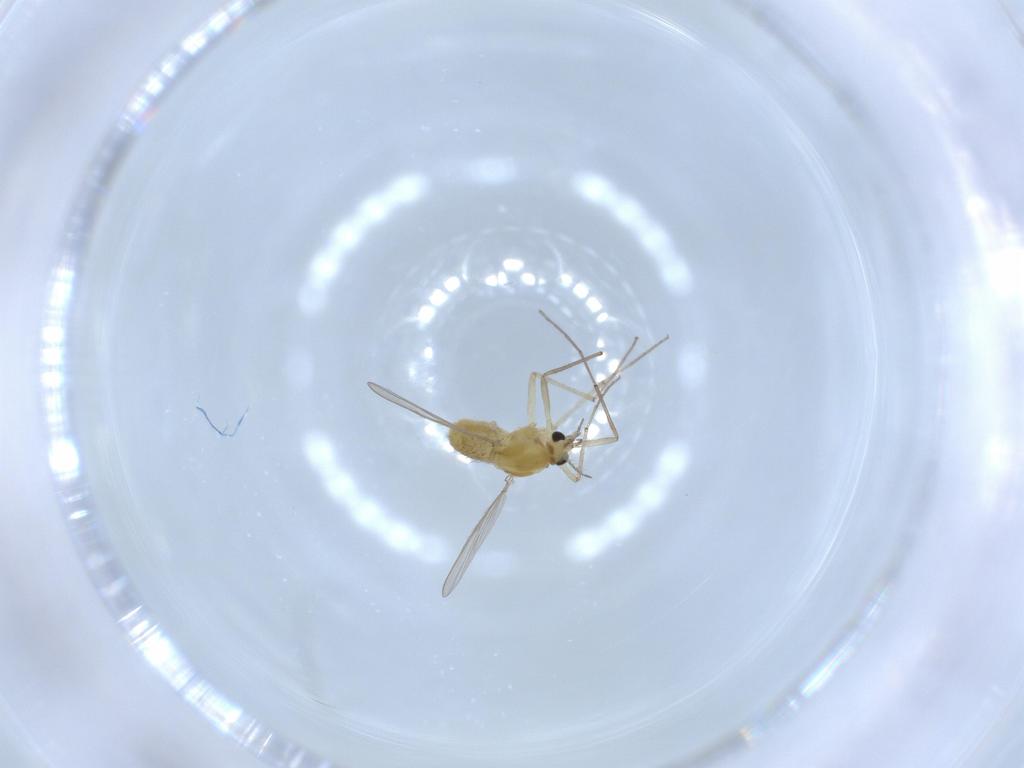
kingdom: Animalia
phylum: Arthropoda
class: Insecta
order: Diptera
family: Chironomidae
